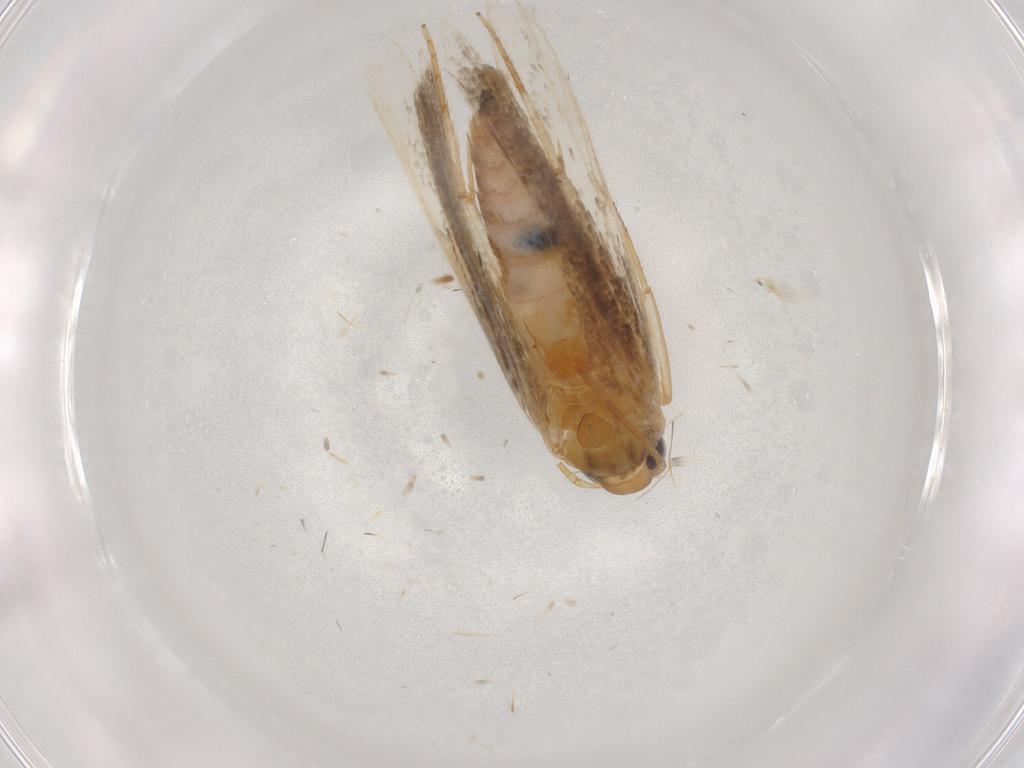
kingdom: Animalia
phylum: Arthropoda
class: Insecta
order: Lepidoptera
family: Gelechiidae
